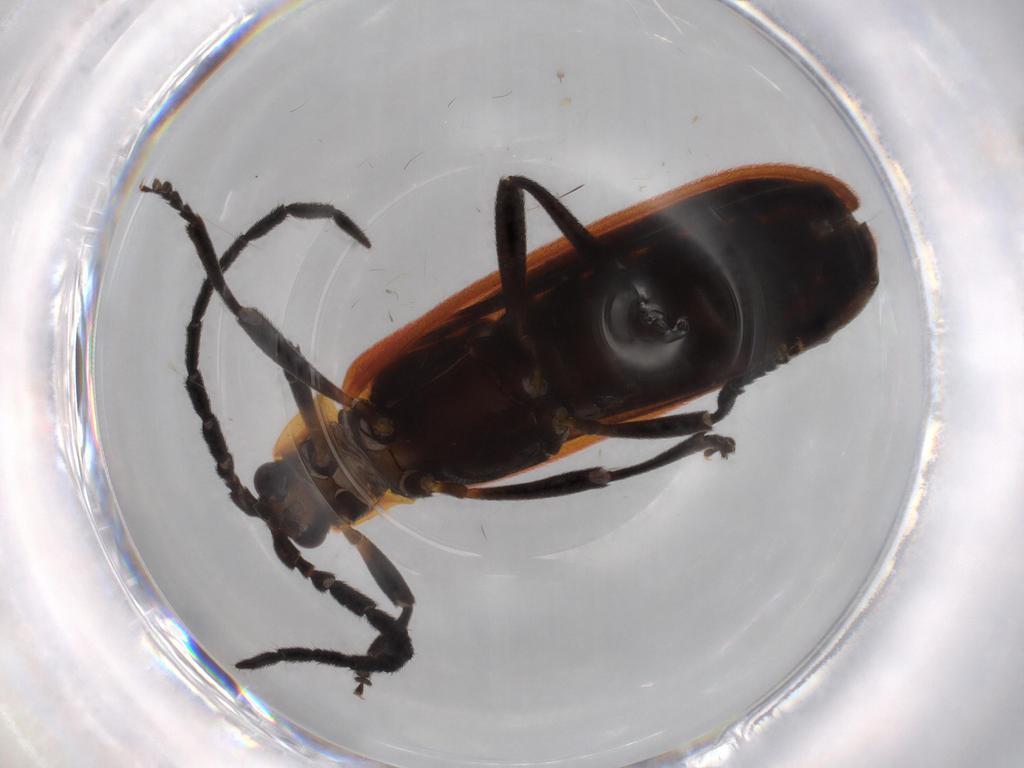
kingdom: Animalia
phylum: Arthropoda
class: Insecta
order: Coleoptera
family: Lycidae
